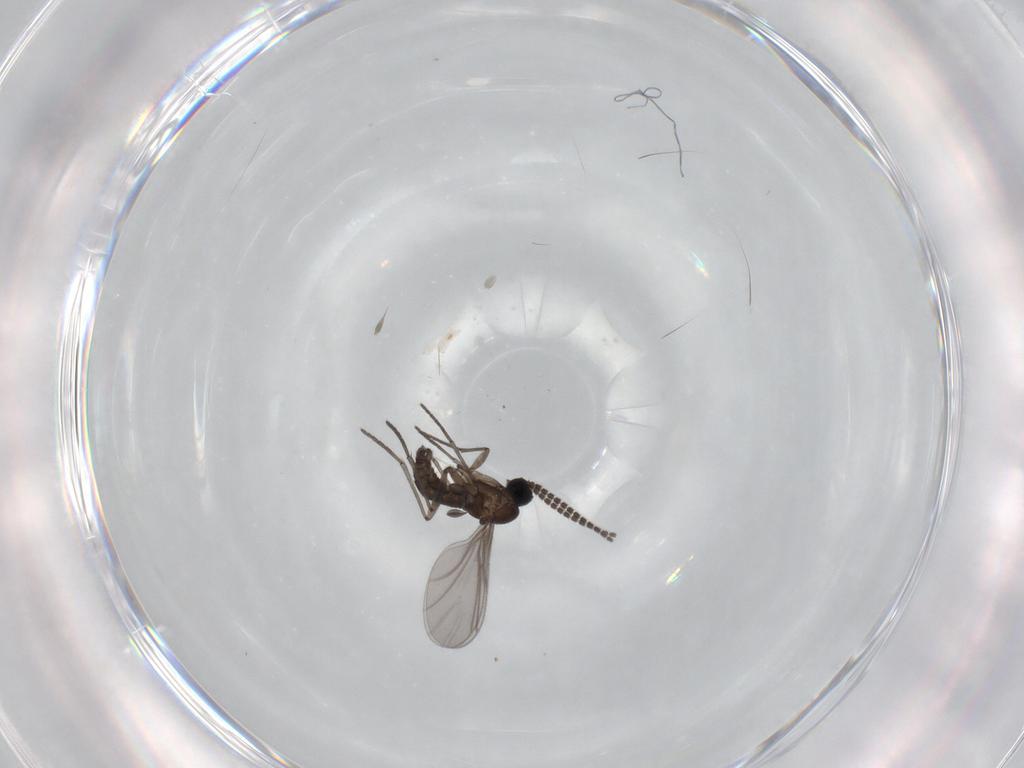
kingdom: Animalia
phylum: Arthropoda
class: Insecta
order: Diptera
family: Sciaridae
